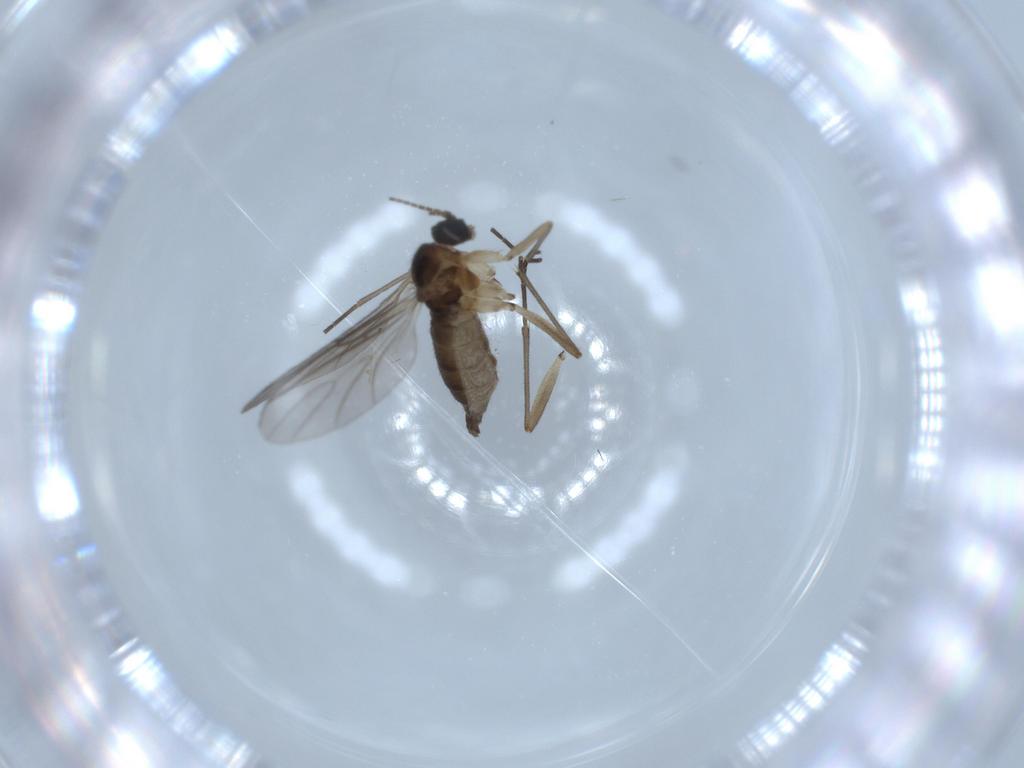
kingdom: Animalia
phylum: Arthropoda
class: Insecta
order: Diptera
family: Sciaridae
